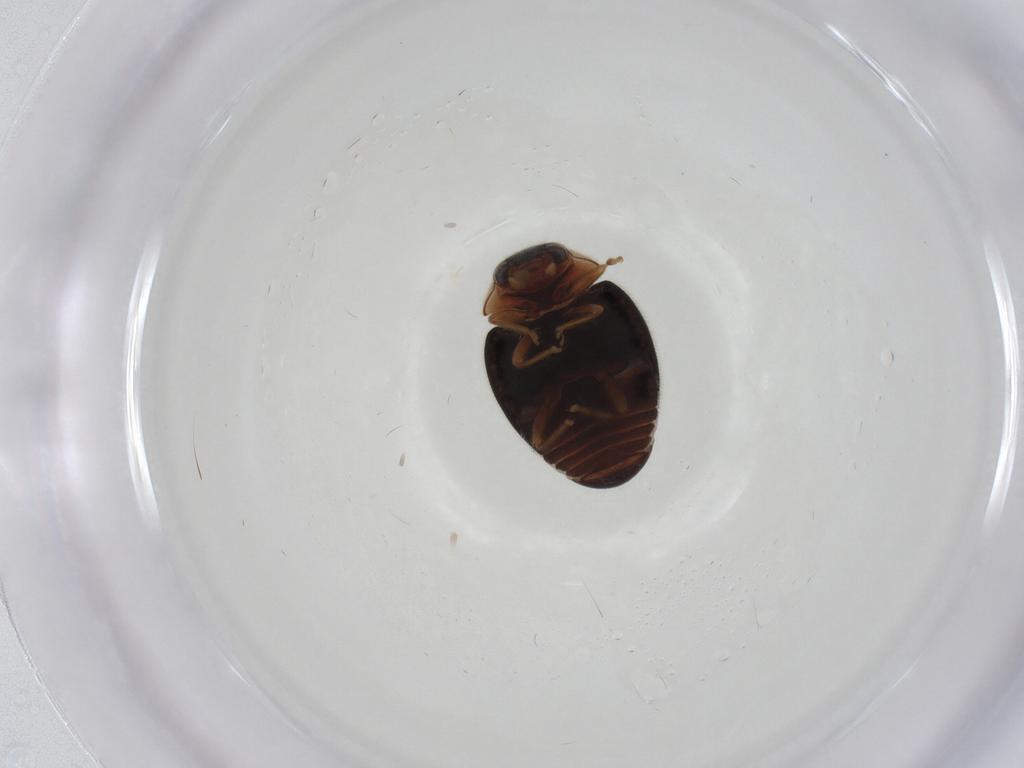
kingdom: Animalia
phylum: Arthropoda
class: Insecta
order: Coleoptera
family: Coccinellidae
